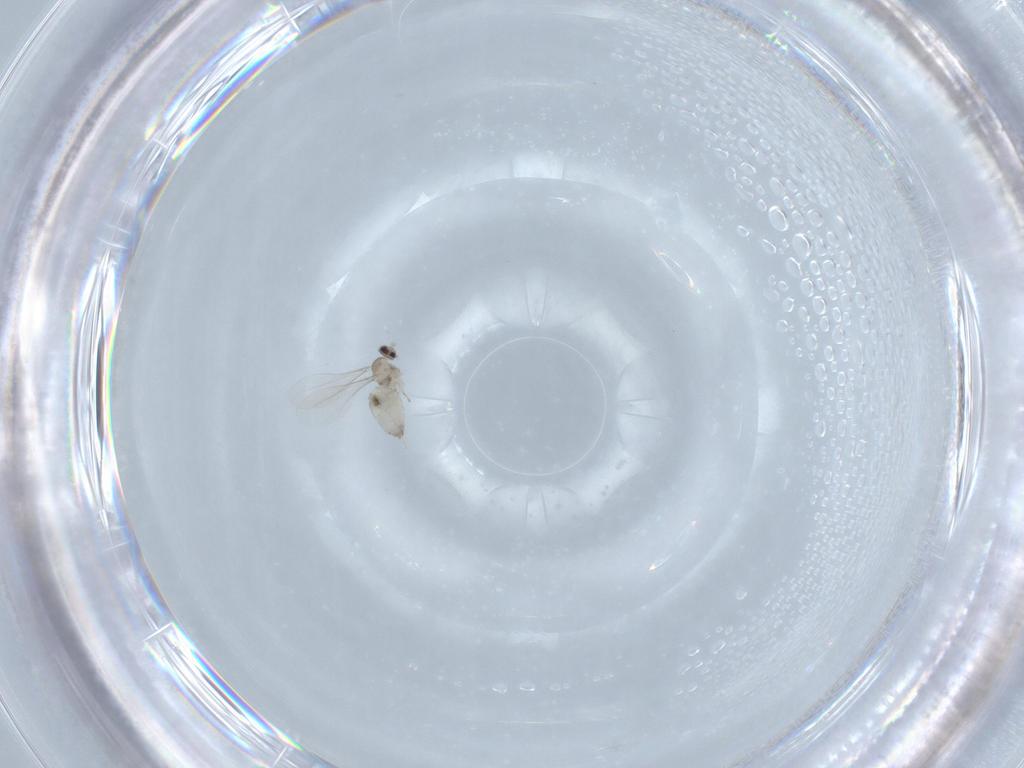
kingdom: Animalia
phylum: Arthropoda
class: Insecta
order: Diptera
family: Cecidomyiidae
